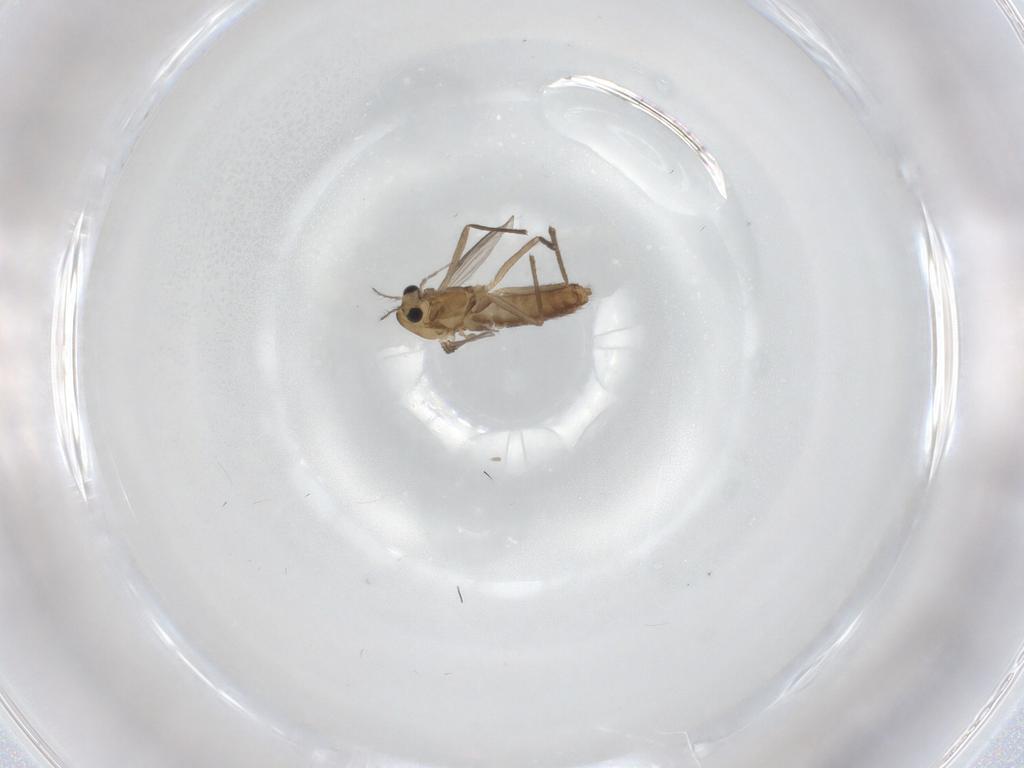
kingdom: Animalia
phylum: Arthropoda
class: Insecta
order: Diptera
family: Chironomidae
